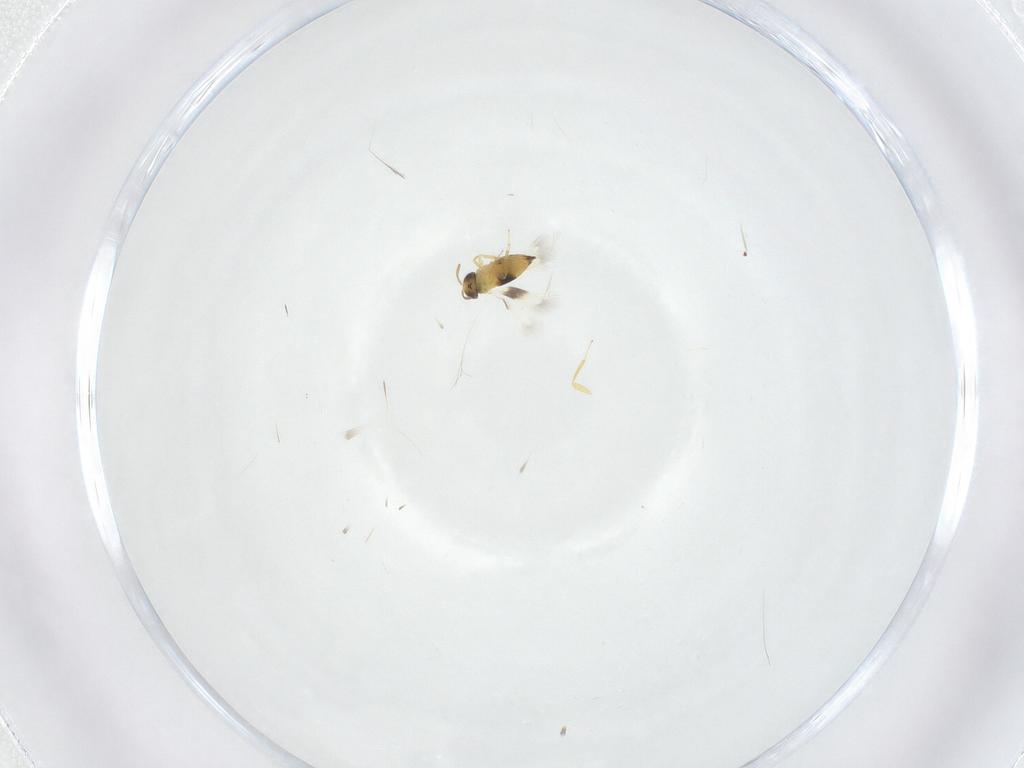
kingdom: Animalia
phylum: Arthropoda
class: Insecta
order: Hymenoptera
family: Signiphoridae
